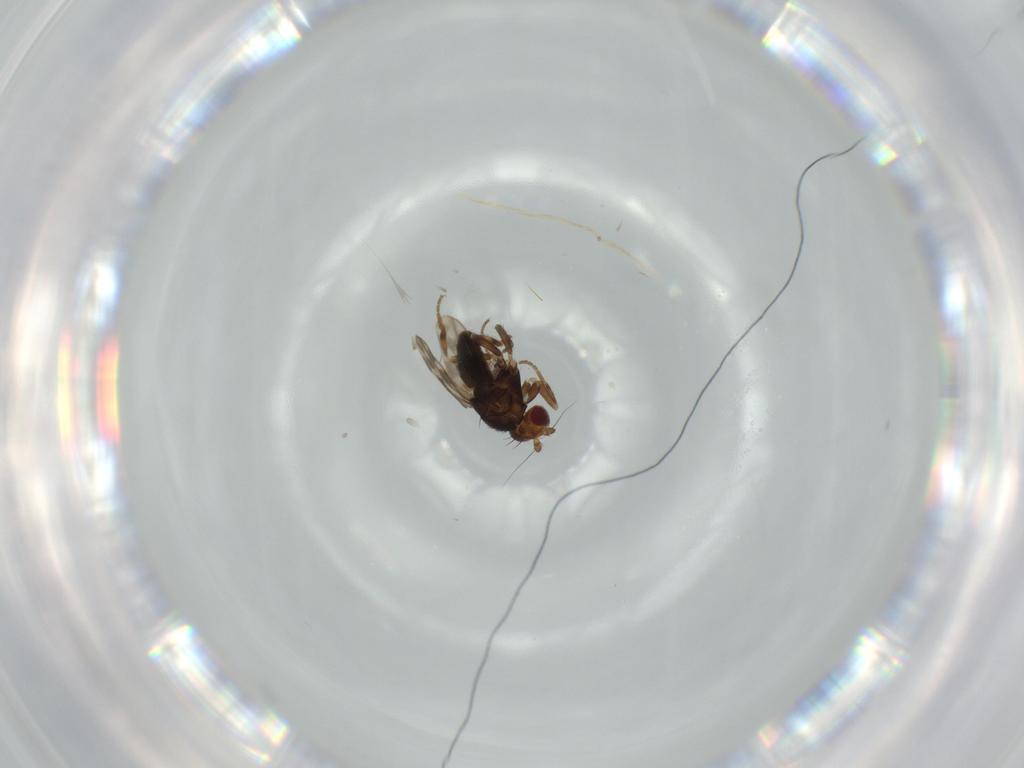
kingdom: Animalia
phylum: Arthropoda
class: Insecta
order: Diptera
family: Sphaeroceridae
